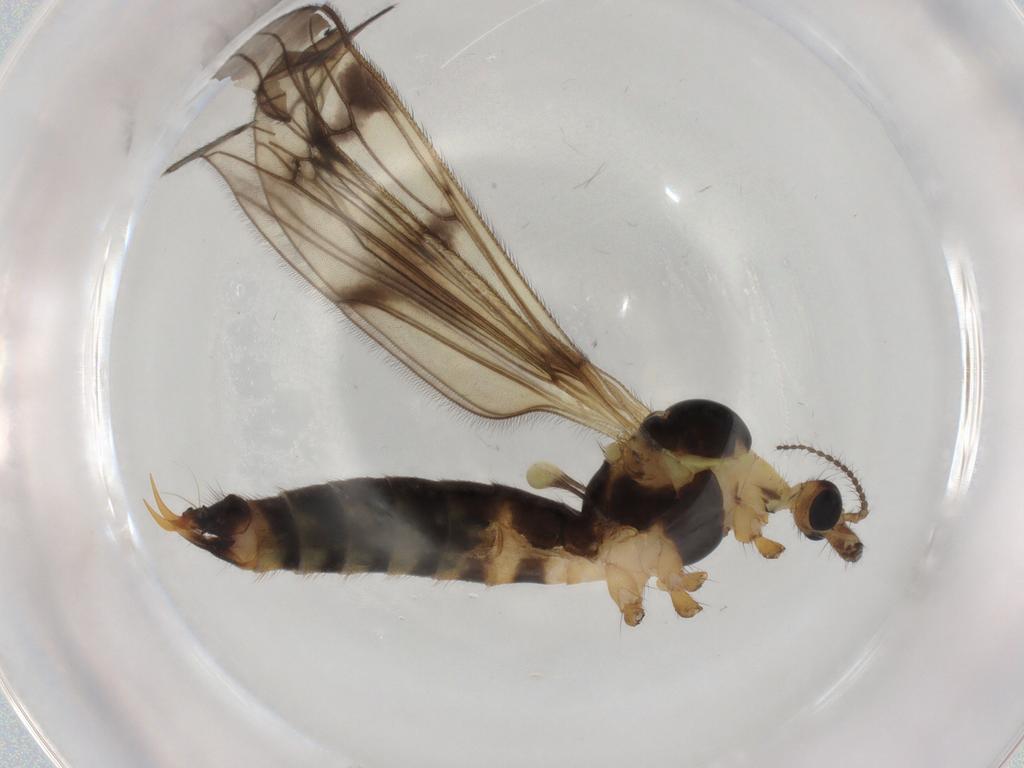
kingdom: Animalia
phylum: Arthropoda
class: Insecta
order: Diptera
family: Limoniidae
